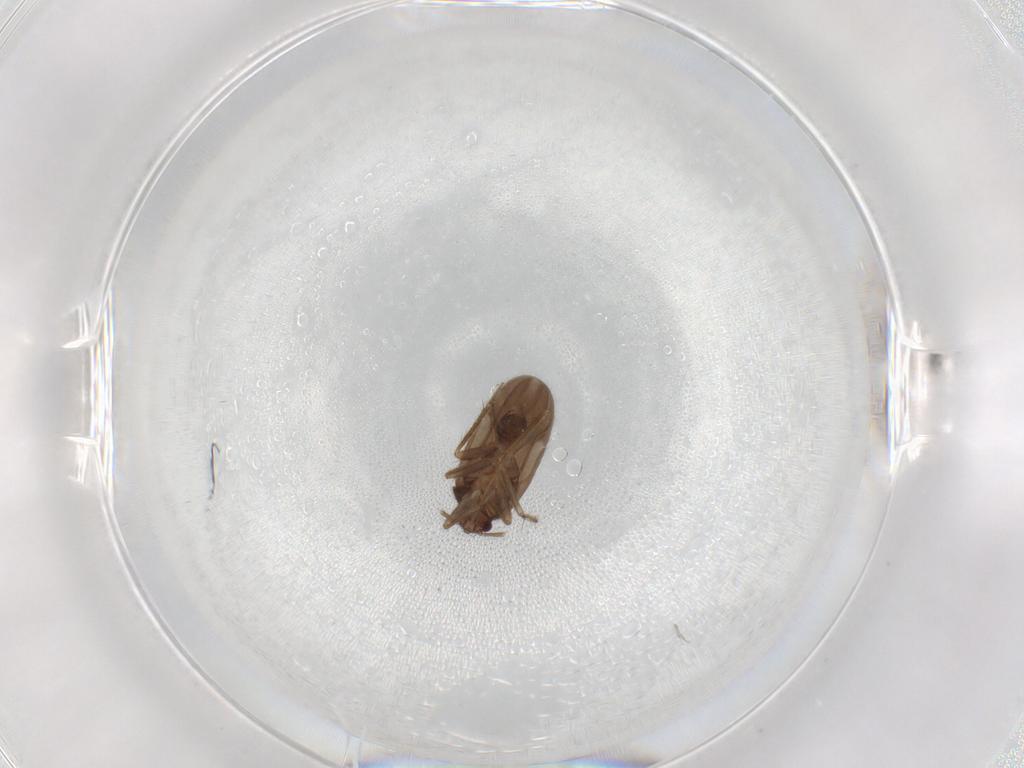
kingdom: Animalia
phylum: Arthropoda
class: Insecta
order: Hemiptera
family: Aleyrodidae
